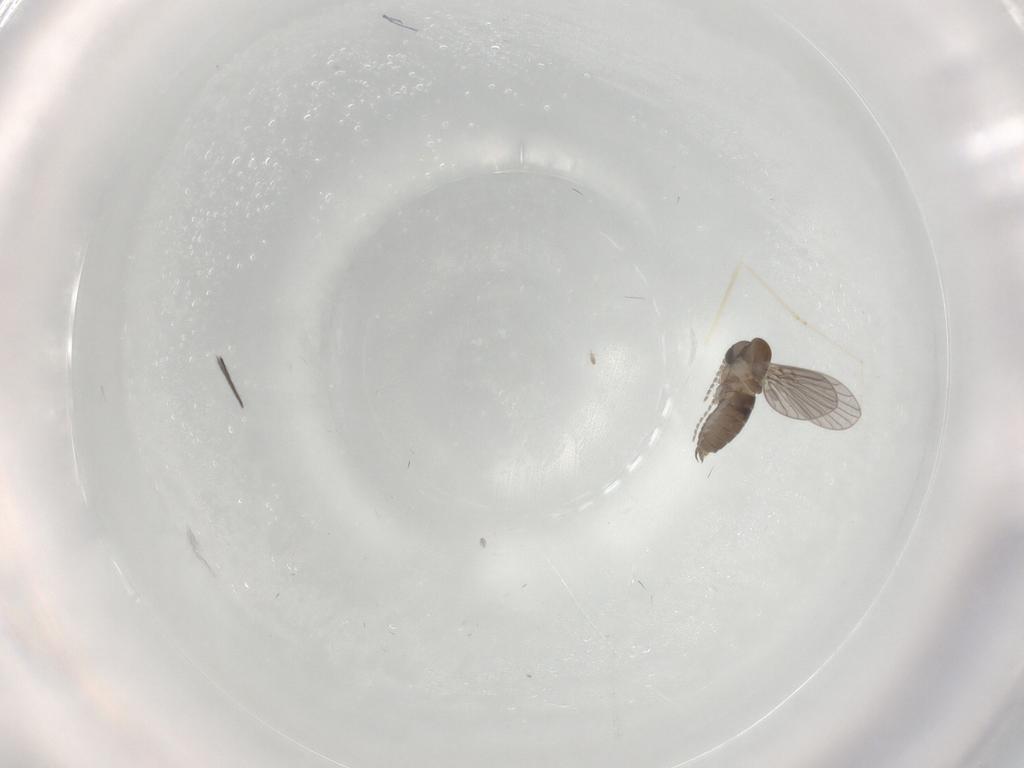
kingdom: Animalia
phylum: Arthropoda
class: Insecta
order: Diptera
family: Cecidomyiidae
